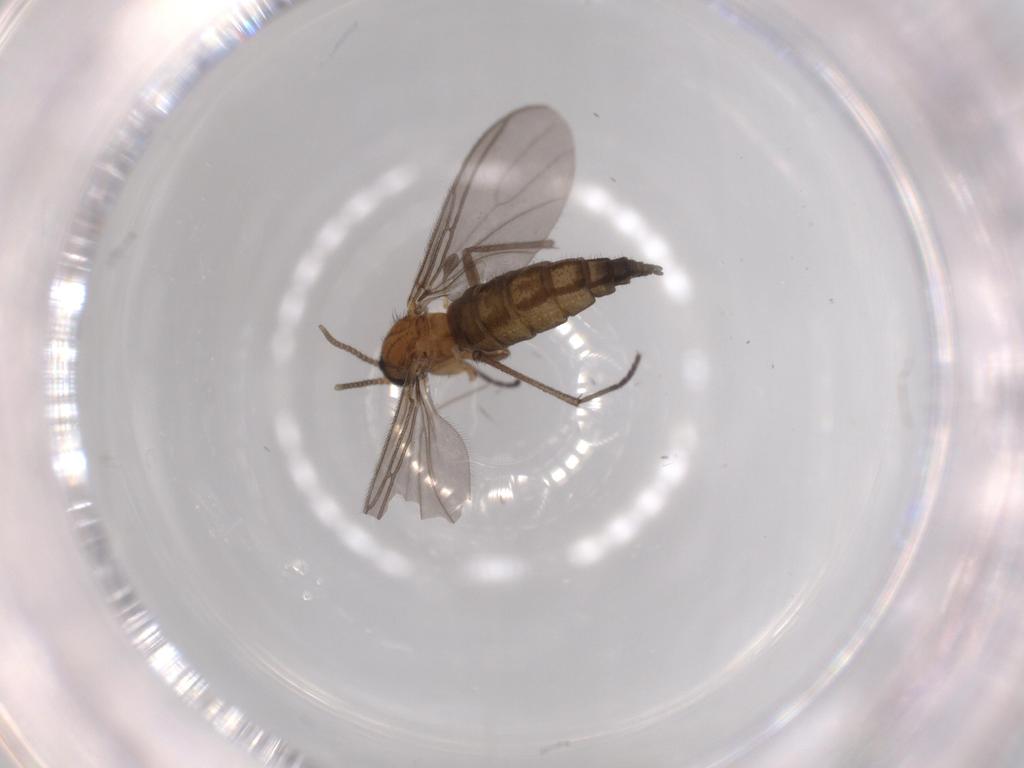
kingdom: Animalia
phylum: Arthropoda
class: Insecta
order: Diptera
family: Sciaridae
